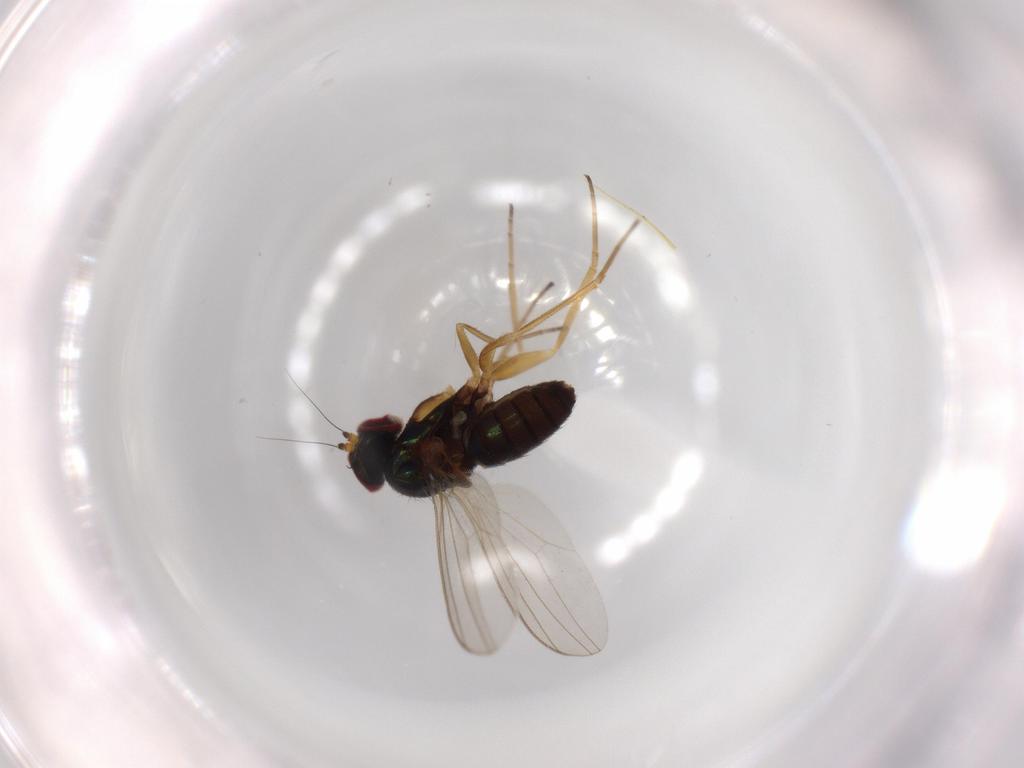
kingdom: Animalia
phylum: Arthropoda
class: Insecta
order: Diptera
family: Dolichopodidae
